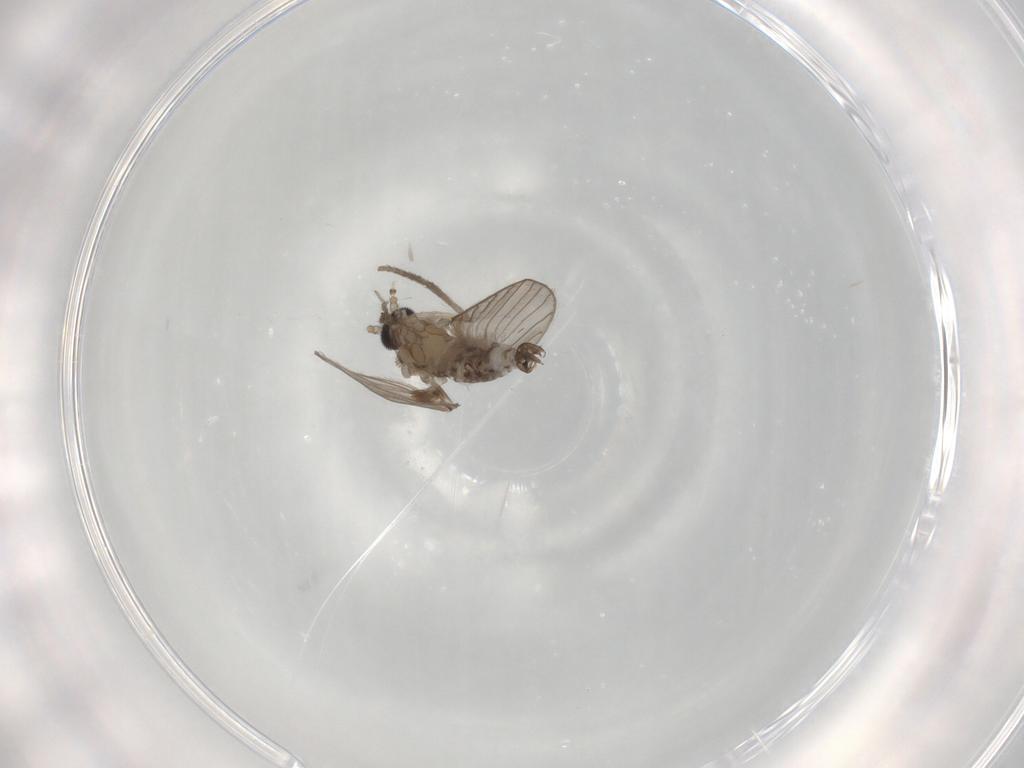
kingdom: Animalia
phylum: Arthropoda
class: Insecta
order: Diptera
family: Psychodidae
